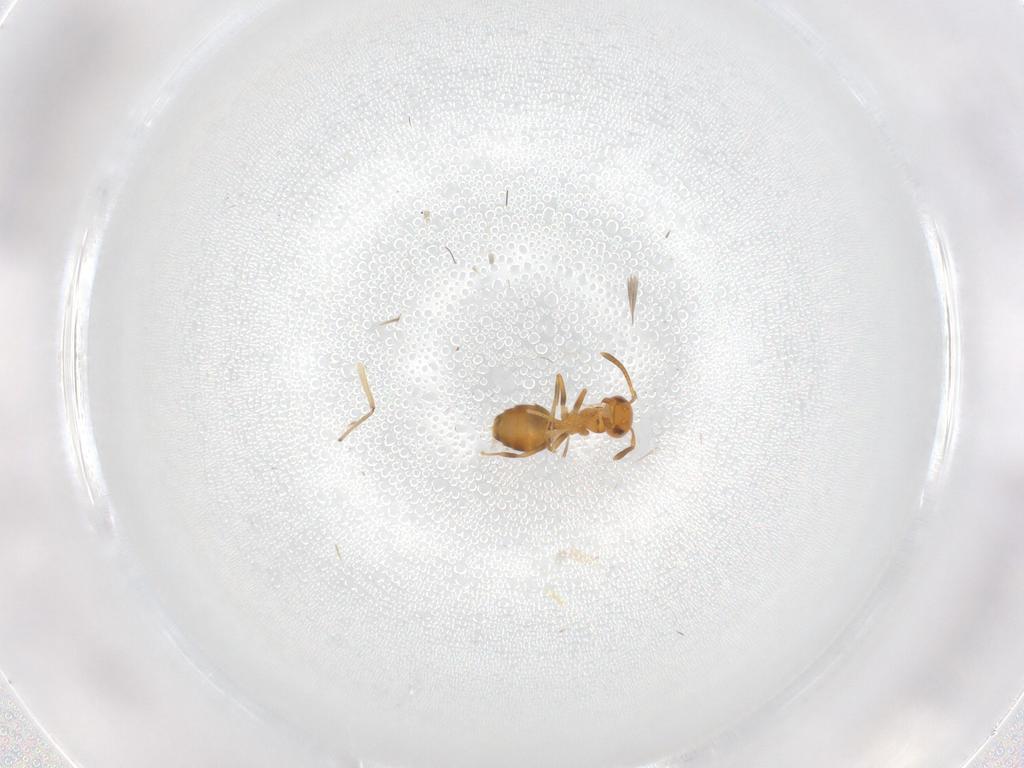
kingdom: Animalia
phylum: Arthropoda
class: Insecta
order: Hymenoptera
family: Formicidae
